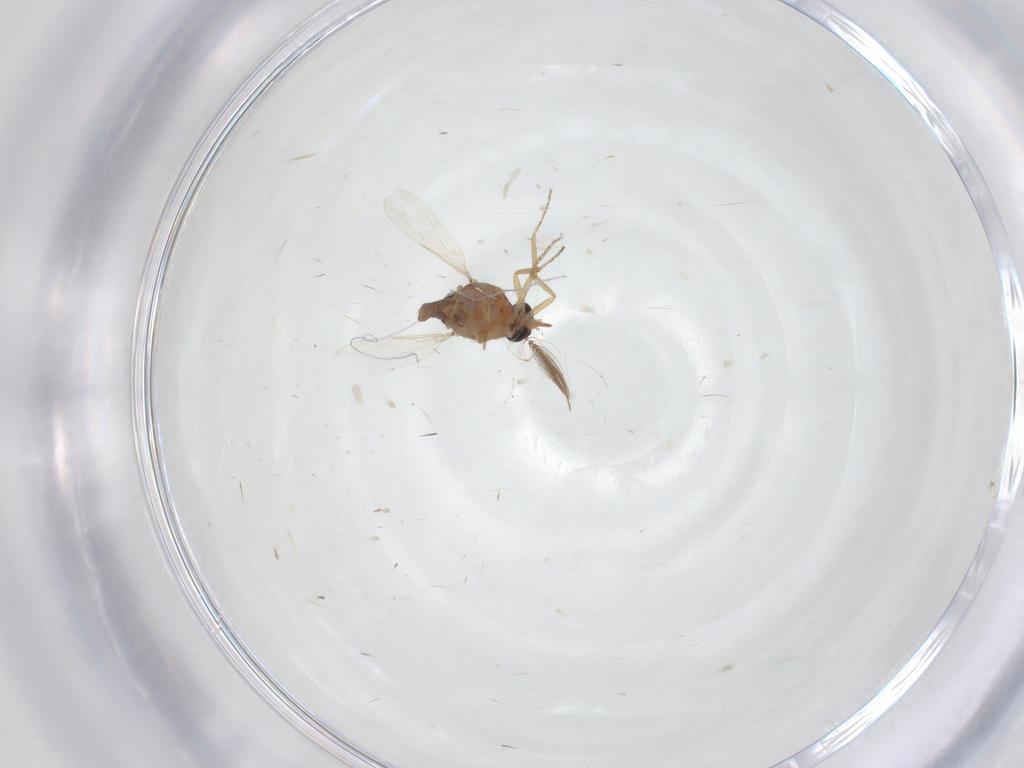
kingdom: Animalia
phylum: Arthropoda
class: Insecta
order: Diptera
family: Ceratopogonidae
